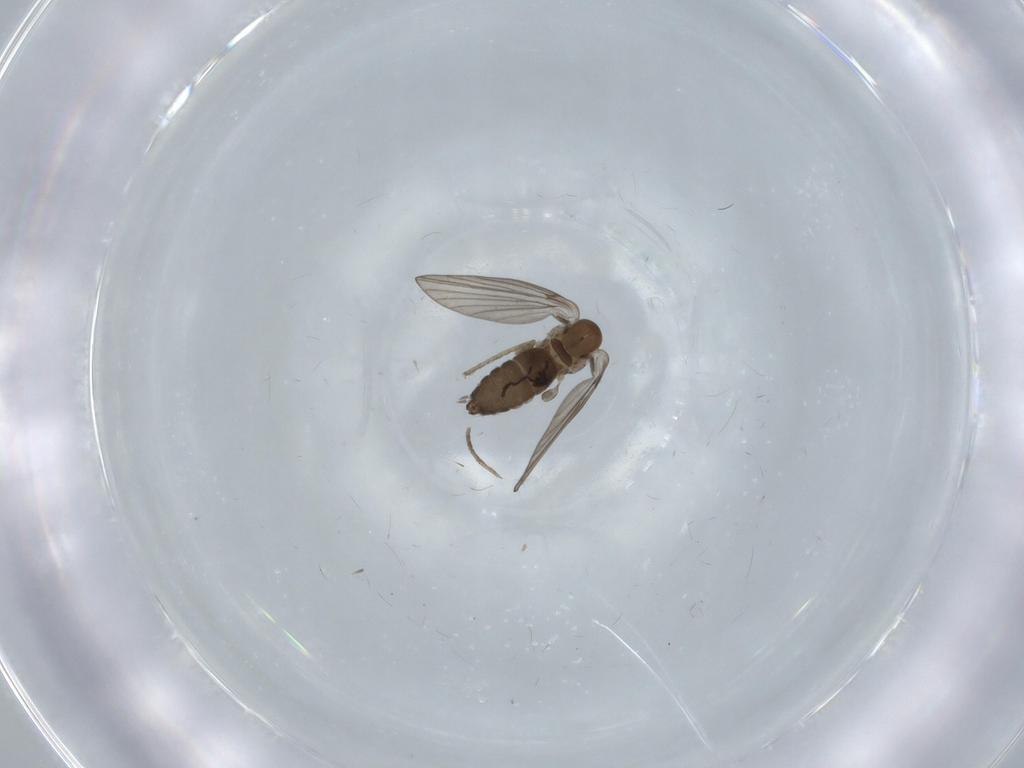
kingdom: Animalia
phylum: Arthropoda
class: Insecta
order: Diptera
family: Psychodidae
